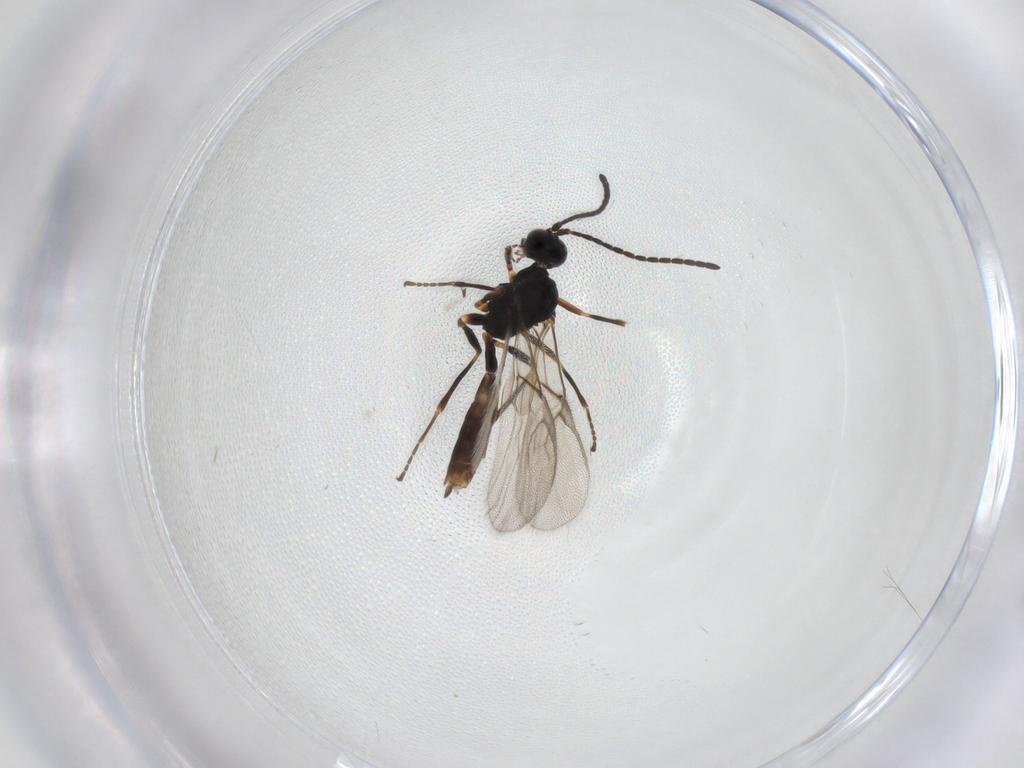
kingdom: Animalia
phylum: Arthropoda
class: Insecta
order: Hymenoptera
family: Braconidae
